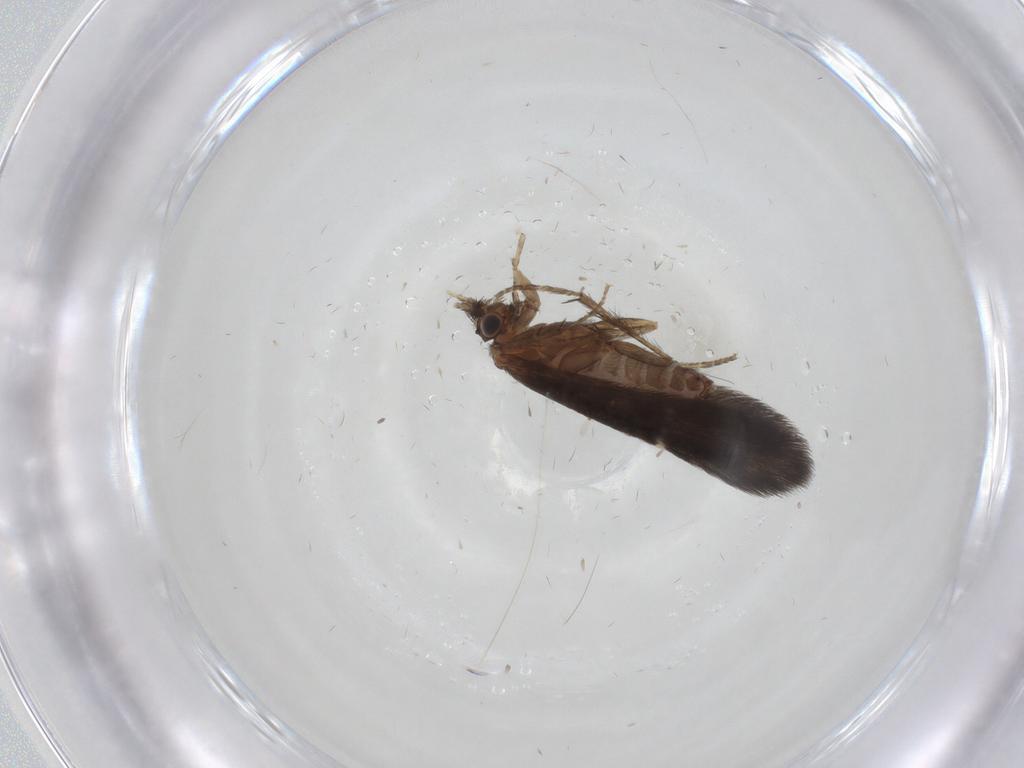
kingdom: Animalia
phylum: Arthropoda
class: Insecta
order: Trichoptera
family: Glossosomatidae
